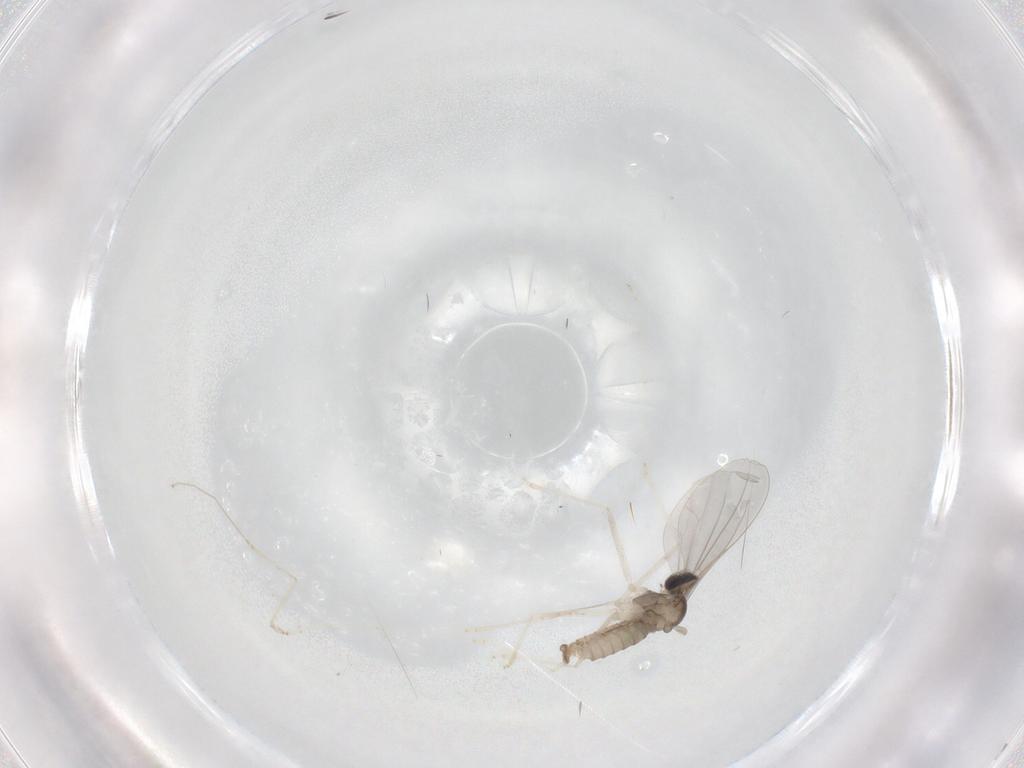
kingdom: Animalia
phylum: Arthropoda
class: Insecta
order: Diptera
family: Cecidomyiidae
